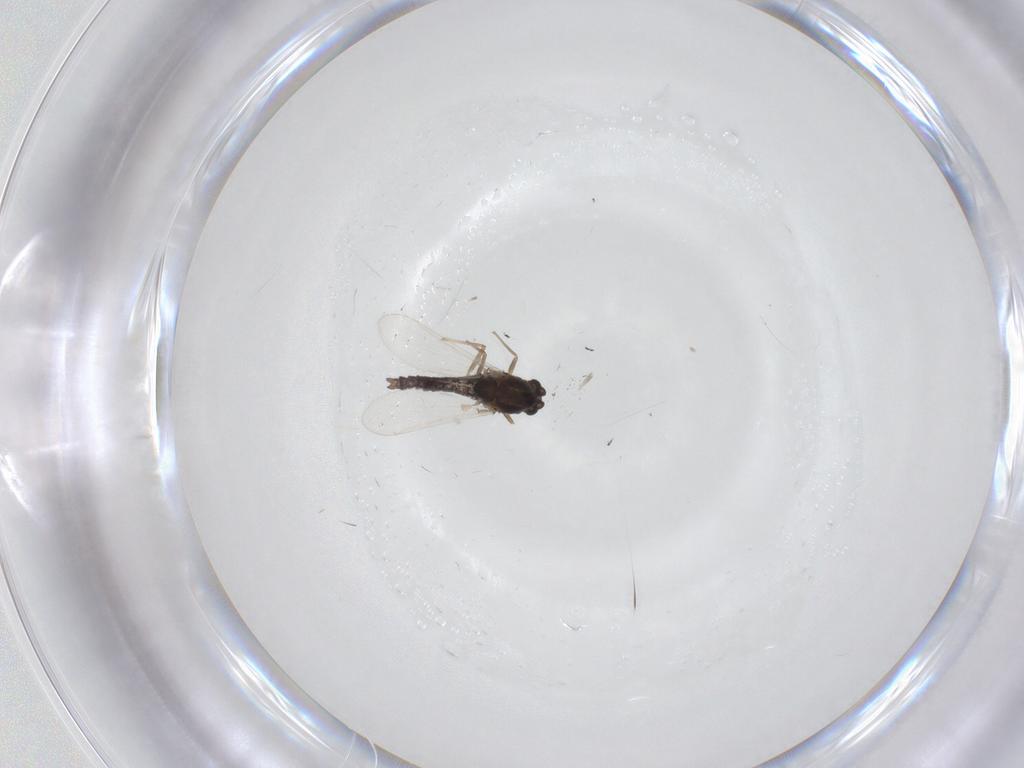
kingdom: Animalia
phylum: Arthropoda
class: Insecta
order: Diptera
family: Chironomidae
